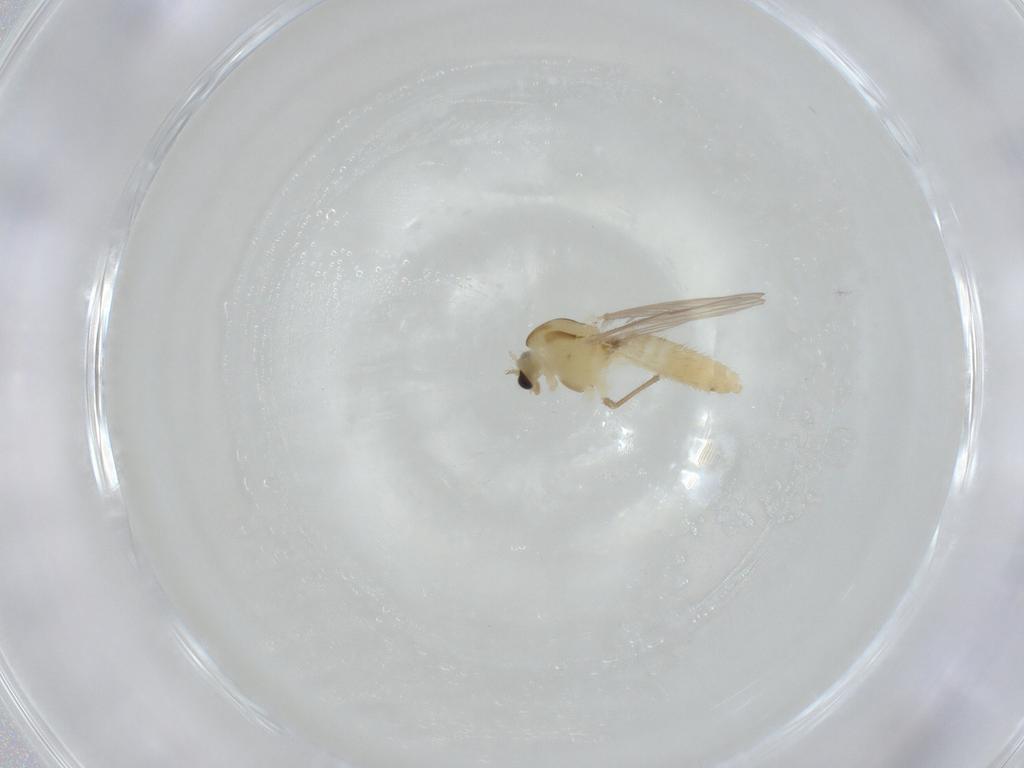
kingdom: Animalia
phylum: Arthropoda
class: Insecta
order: Diptera
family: Chironomidae
